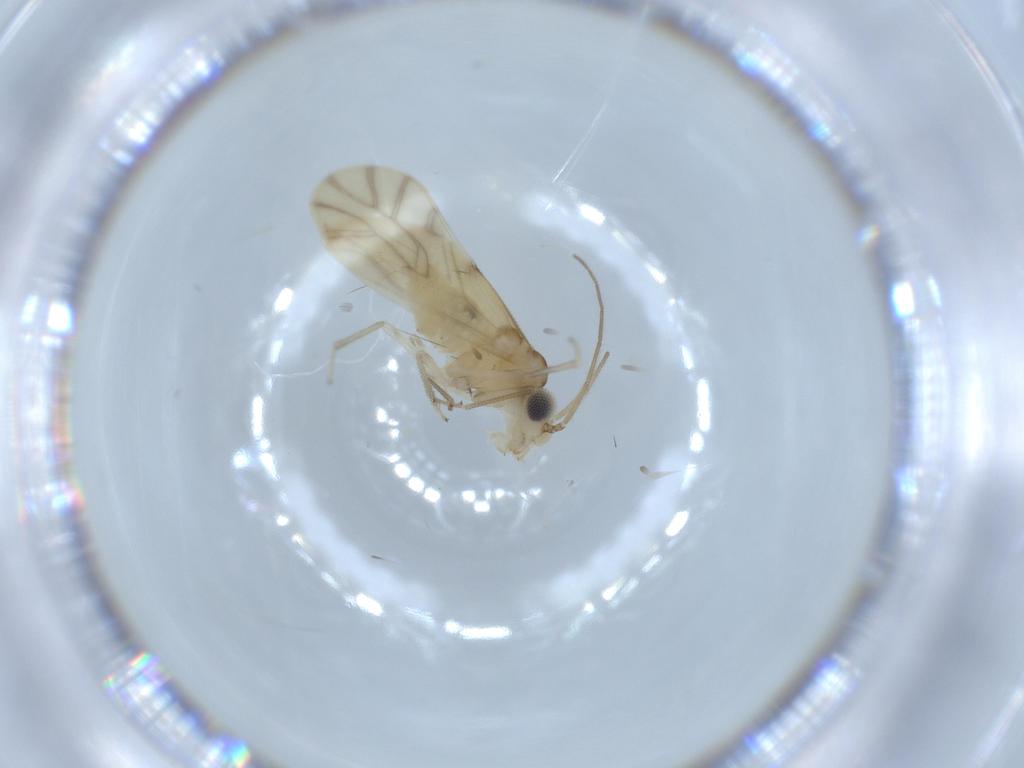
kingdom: Animalia
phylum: Arthropoda
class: Insecta
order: Psocodea
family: Caeciliusidae
